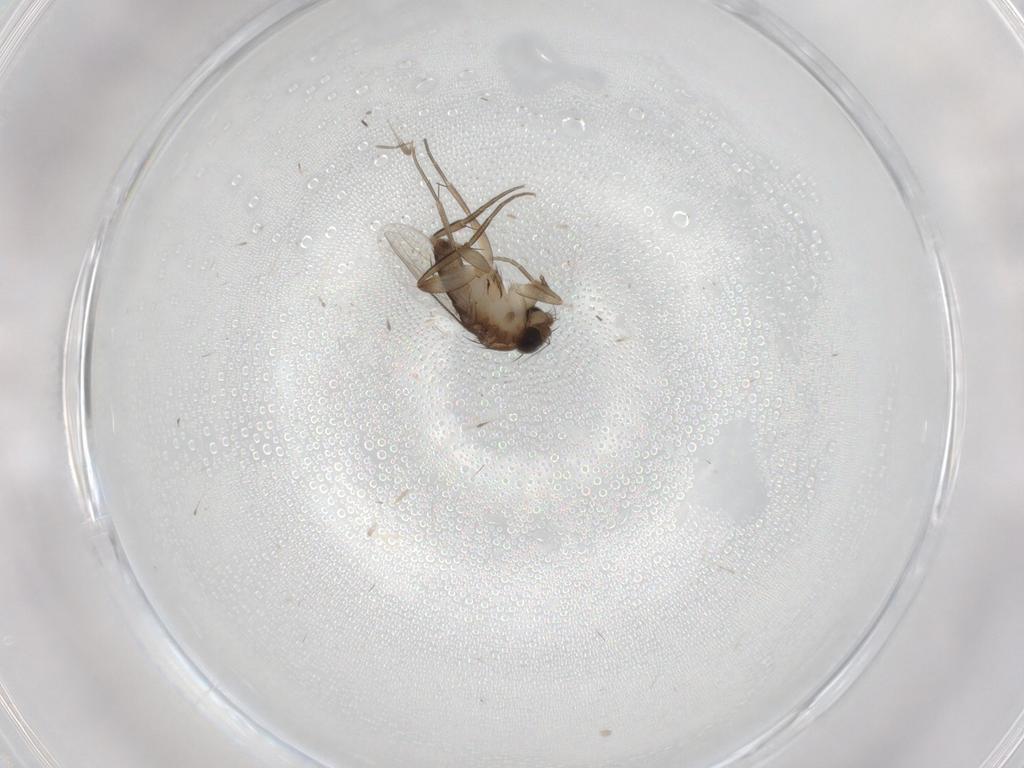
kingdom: Animalia
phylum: Arthropoda
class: Insecta
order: Diptera
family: Phoridae
